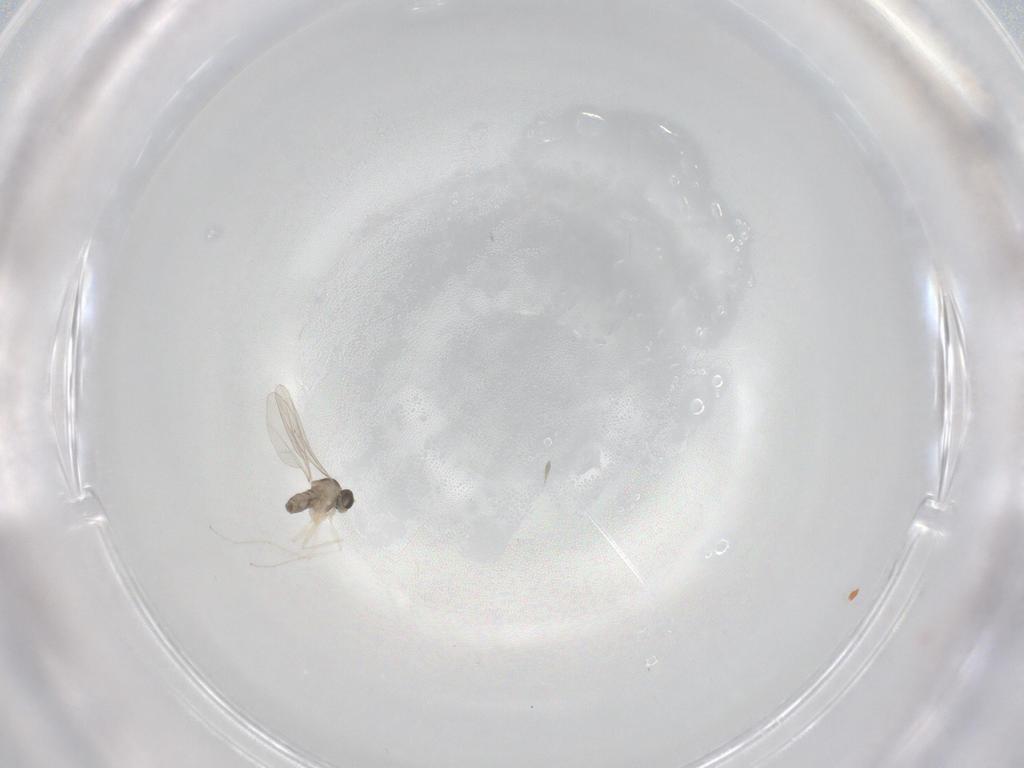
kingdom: Animalia
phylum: Arthropoda
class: Insecta
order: Diptera
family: Cecidomyiidae
